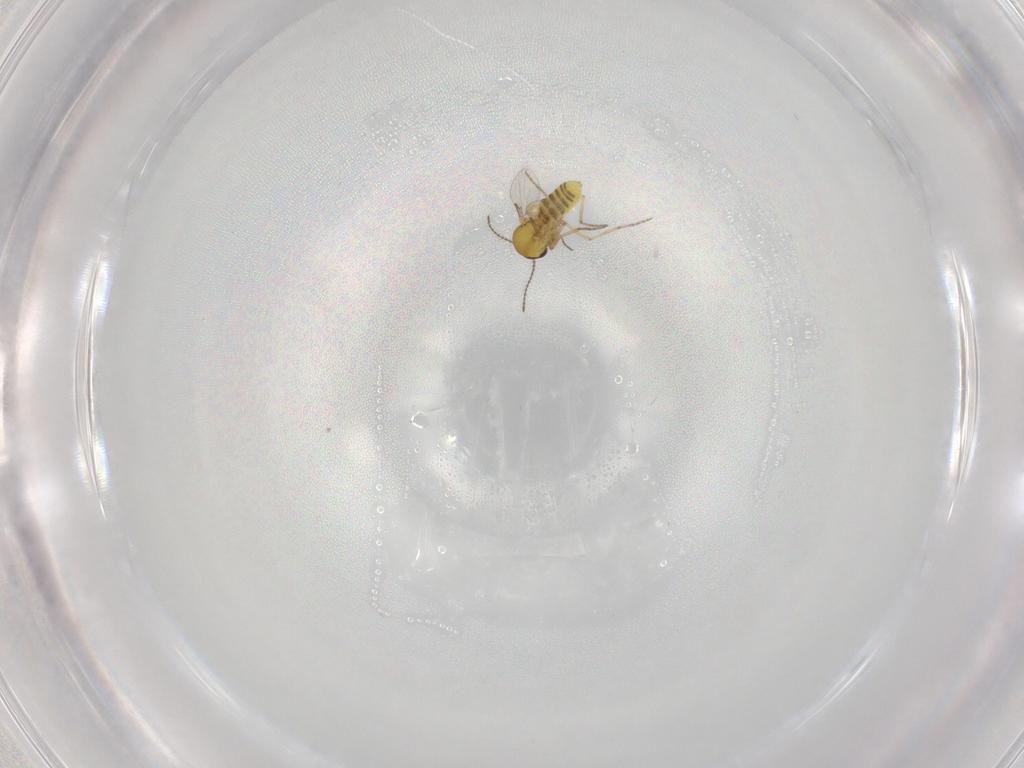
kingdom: Animalia
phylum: Arthropoda
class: Insecta
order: Diptera
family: Ceratopogonidae
